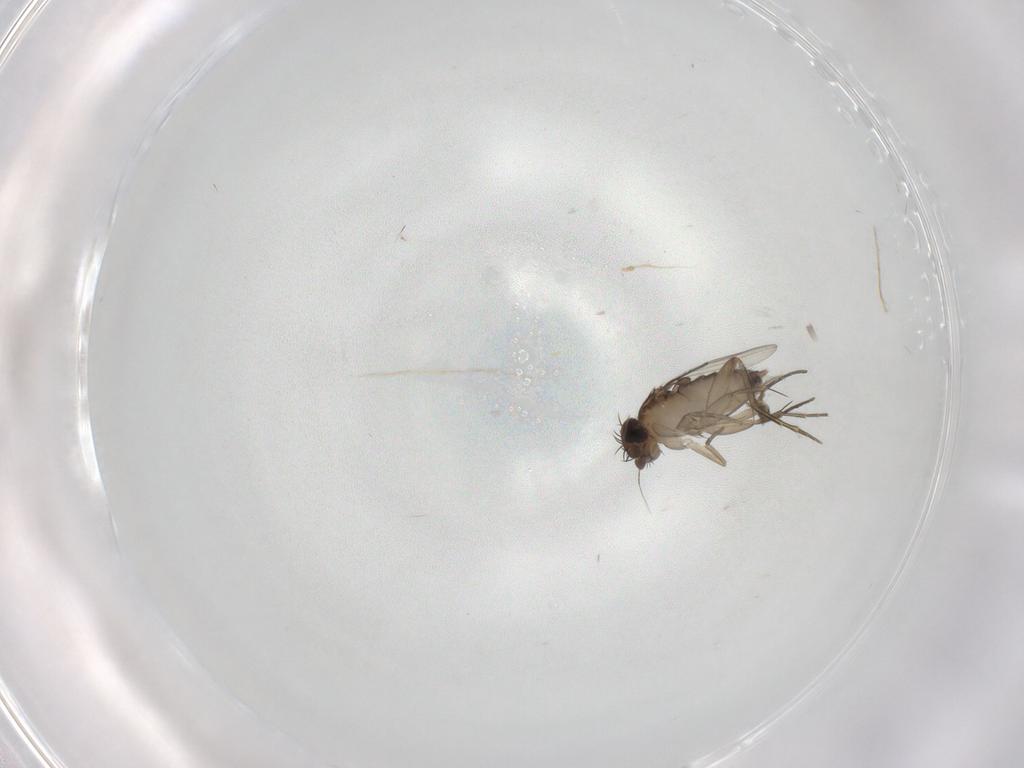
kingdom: Animalia
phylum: Arthropoda
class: Insecta
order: Diptera
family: Phoridae
